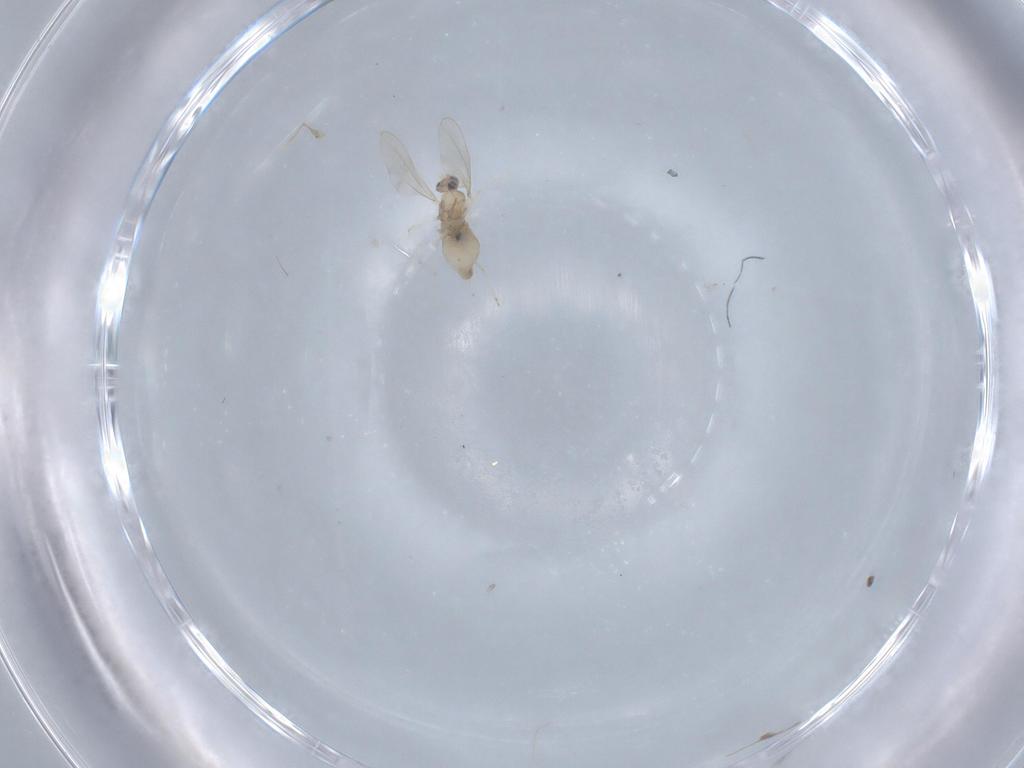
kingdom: Animalia
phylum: Arthropoda
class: Insecta
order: Diptera
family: Cecidomyiidae
